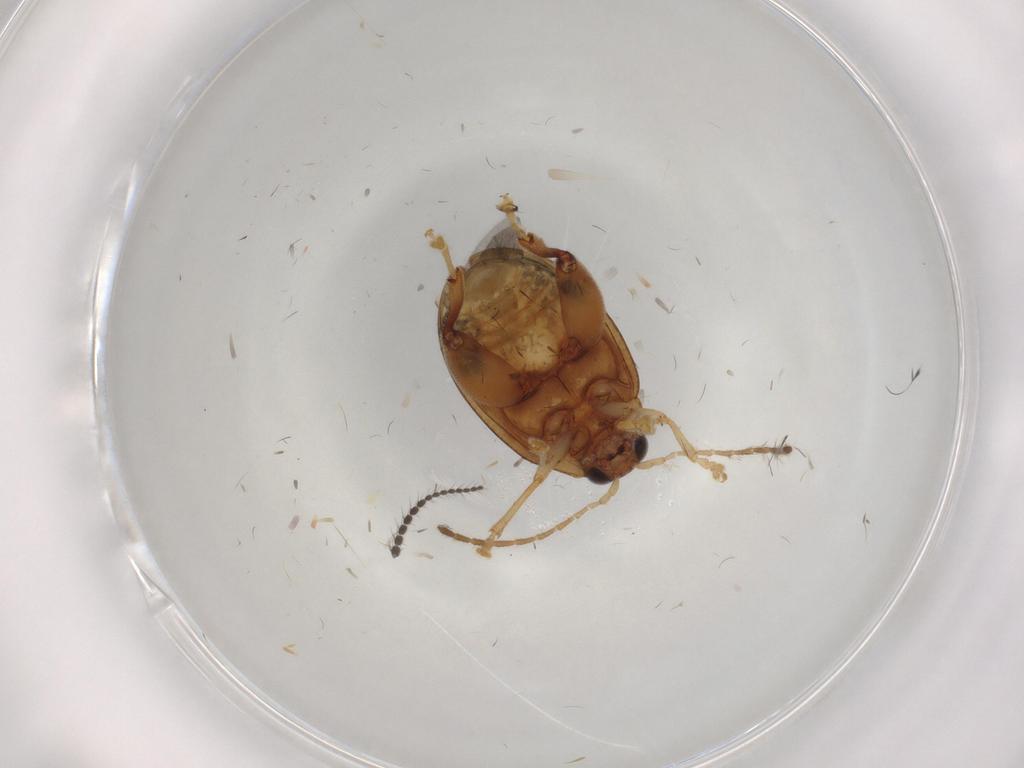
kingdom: Animalia
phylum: Arthropoda
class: Insecta
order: Coleoptera
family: Chrysomelidae
